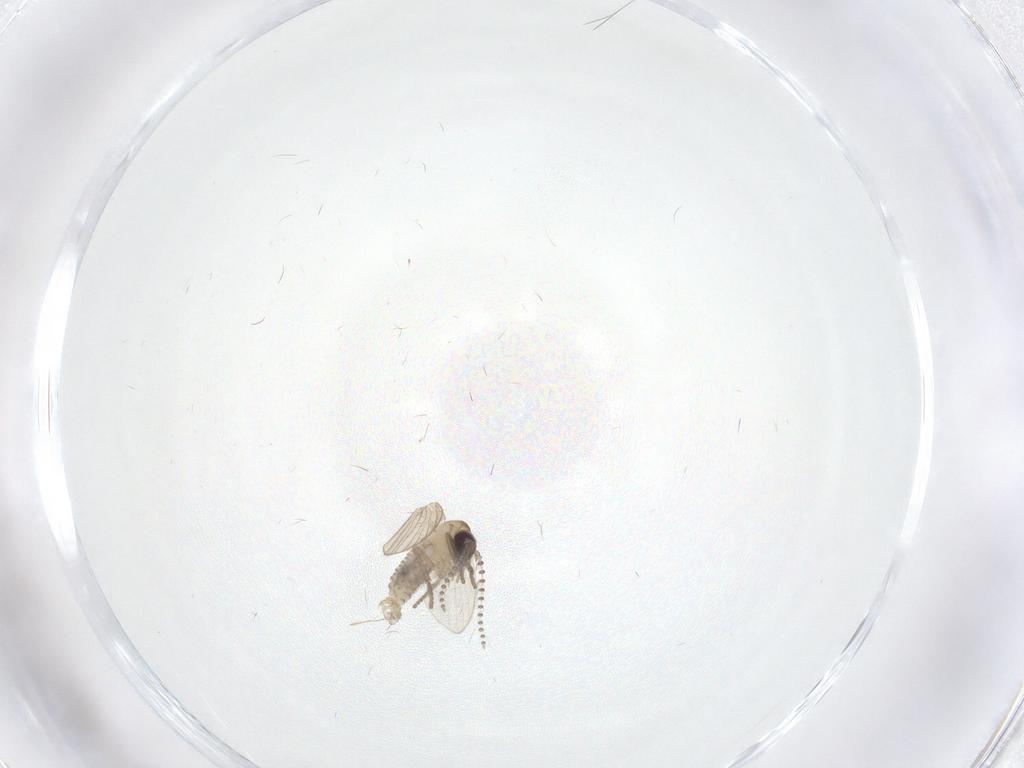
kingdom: Animalia
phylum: Arthropoda
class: Insecta
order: Diptera
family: Psychodidae
